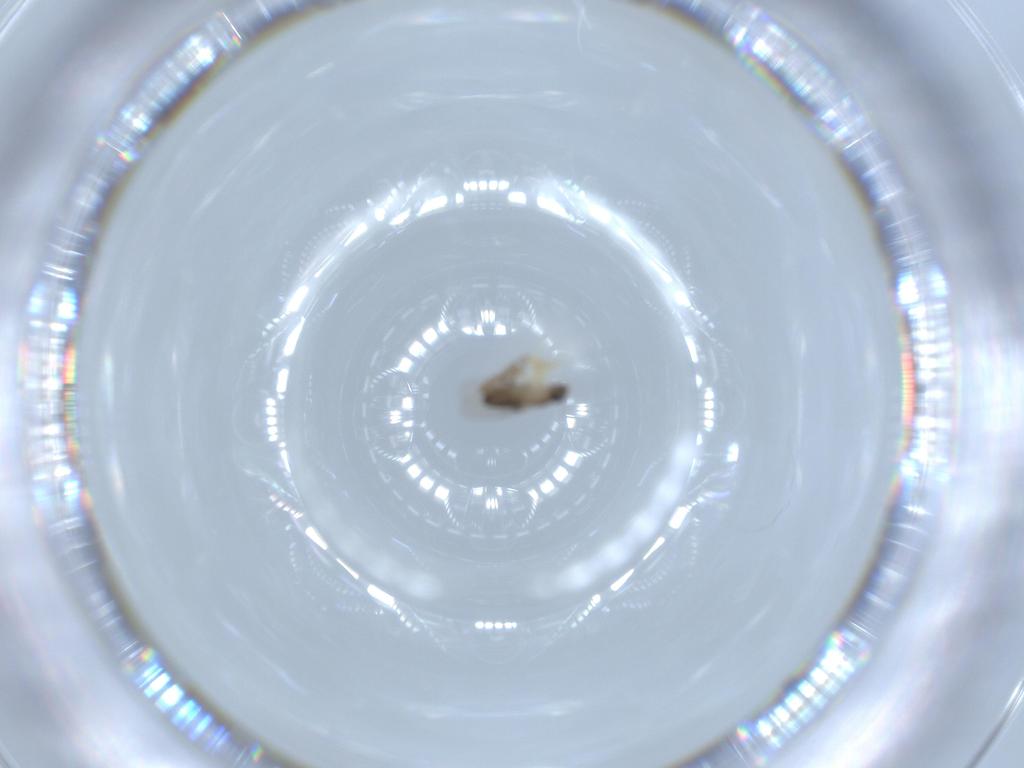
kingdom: Animalia
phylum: Arthropoda
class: Insecta
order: Diptera
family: Phoridae
